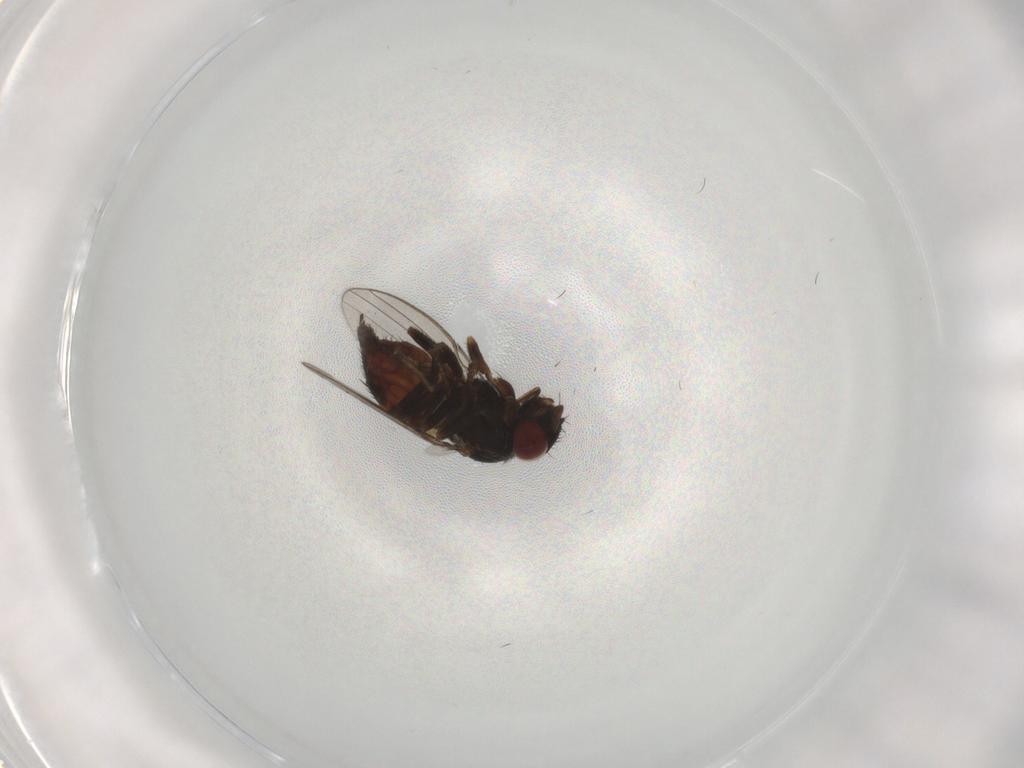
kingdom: Animalia
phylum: Arthropoda
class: Insecta
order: Diptera
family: Milichiidae
